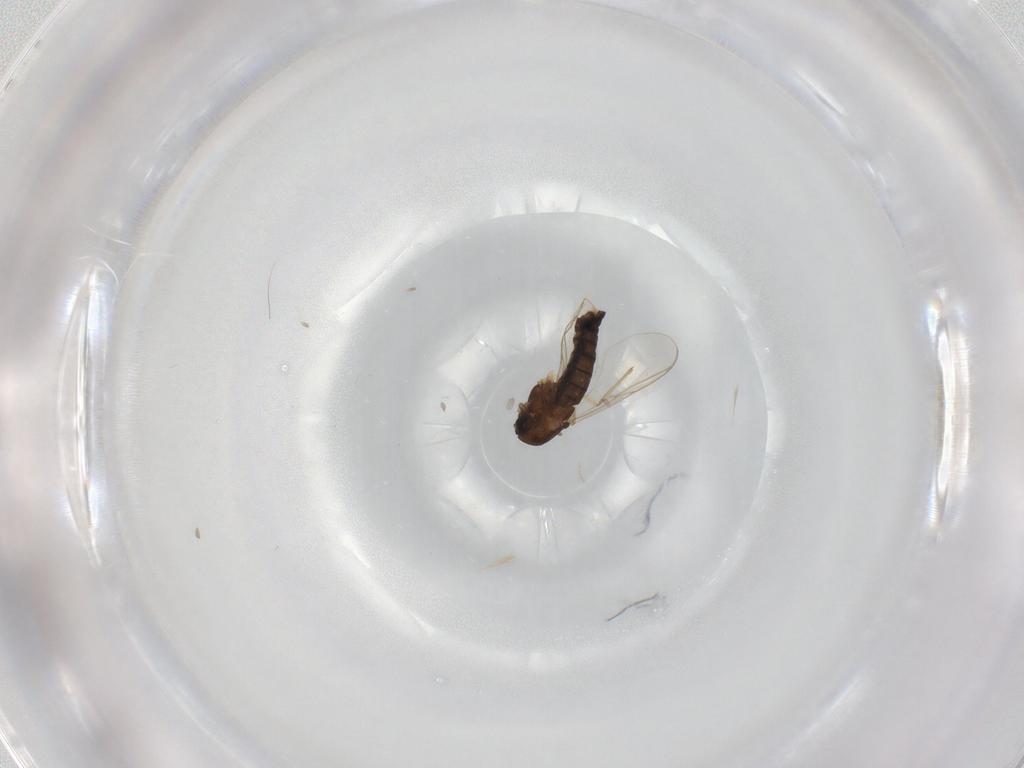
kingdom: Animalia
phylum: Arthropoda
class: Insecta
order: Diptera
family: Chironomidae
